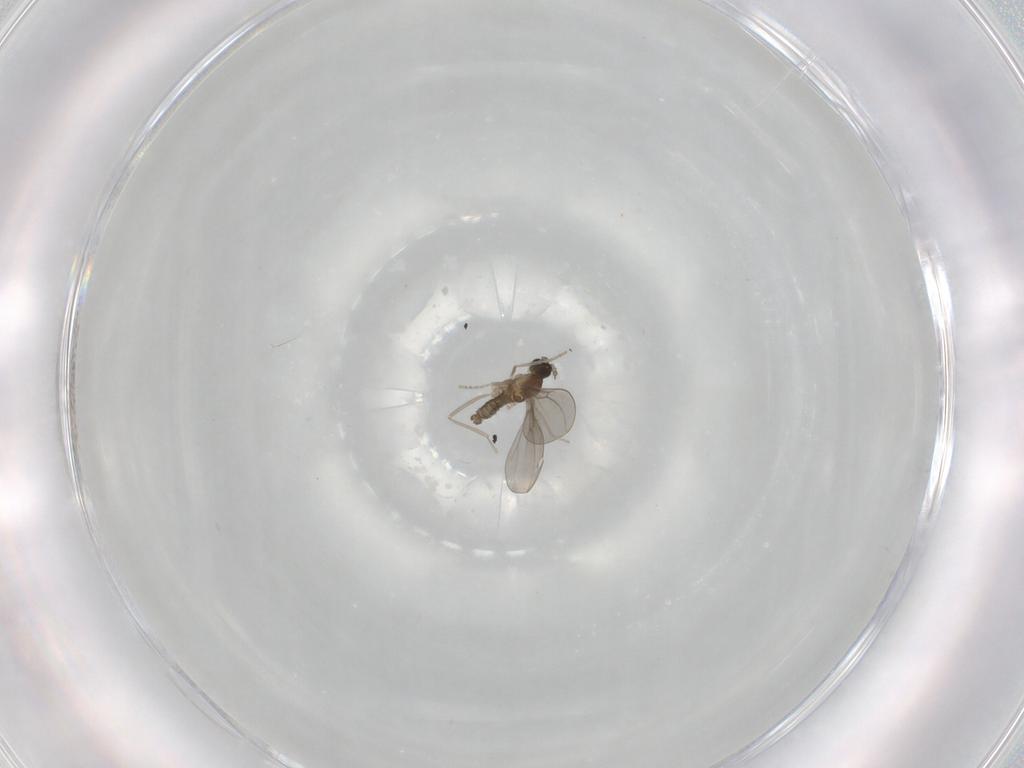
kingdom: Animalia
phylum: Arthropoda
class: Insecta
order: Diptera
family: Cecidomyiidae
